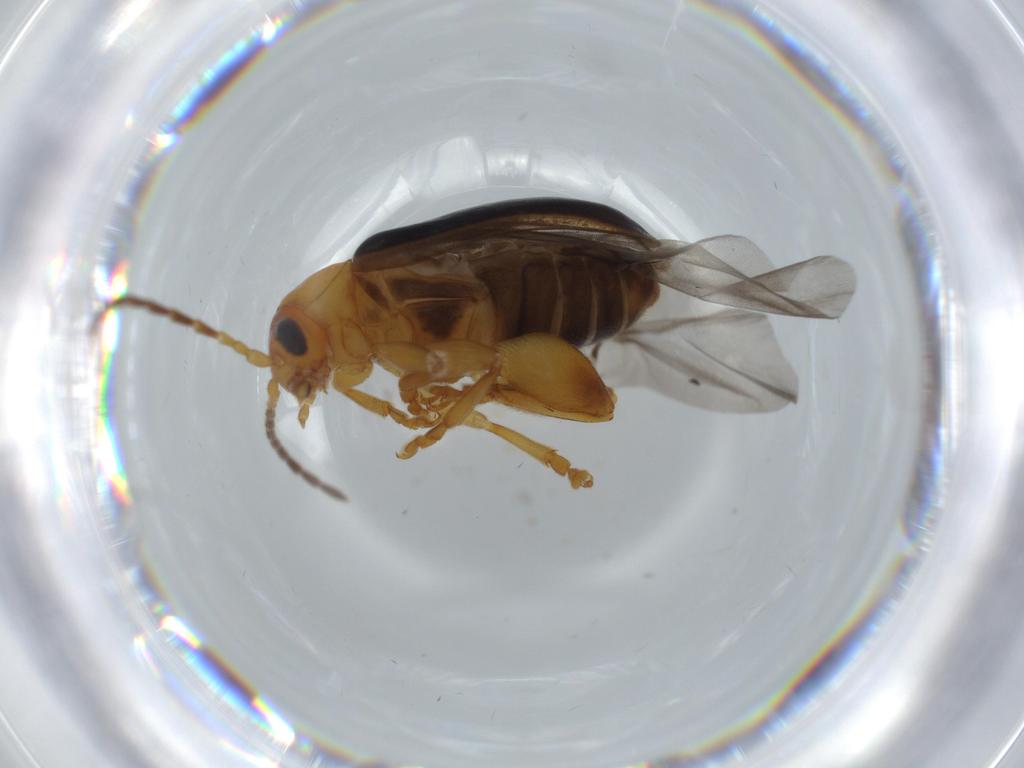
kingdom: Animalia
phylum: Arthropoda
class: Insecta
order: Coleoptera
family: Chrysomelidae
